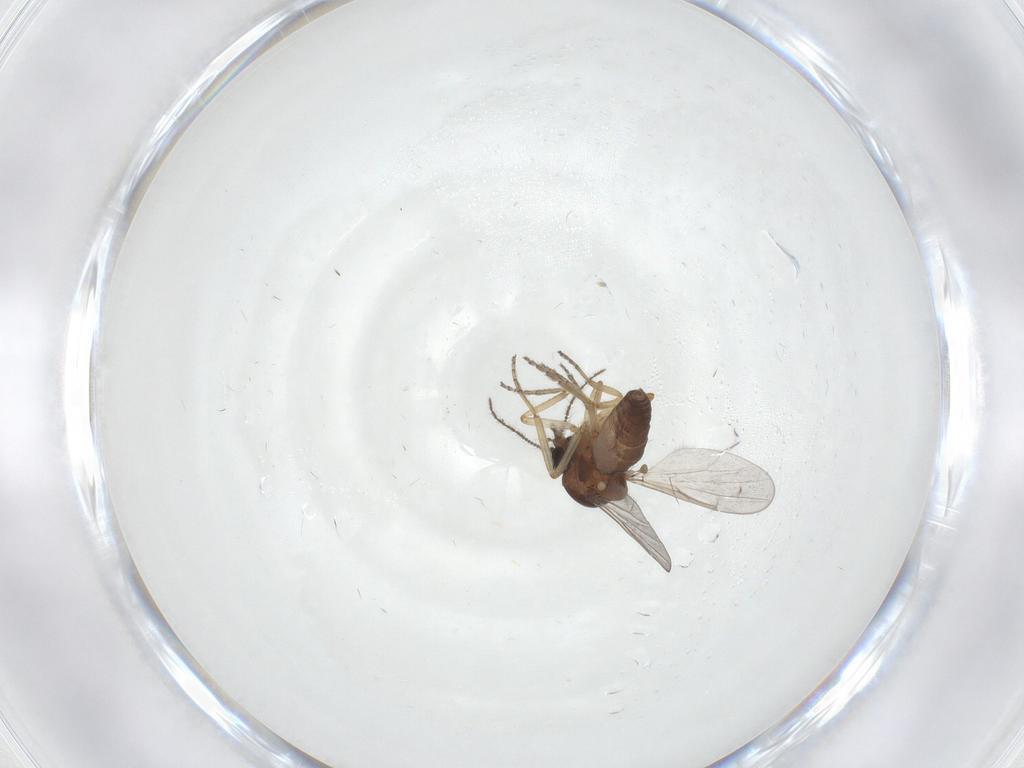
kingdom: Animalia
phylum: Arthropoda
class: Insecta
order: Diptera
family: Ceratopogonidae
